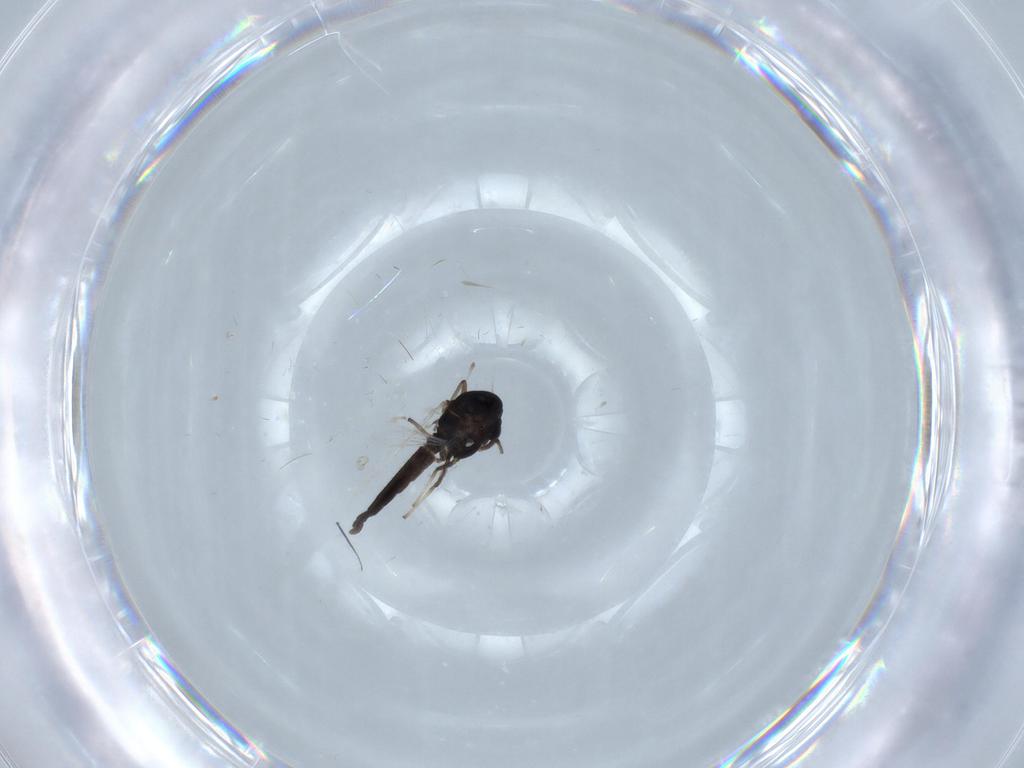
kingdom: Animalia
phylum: Arthropoda
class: Insecta
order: Diptera
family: Chironomidae
